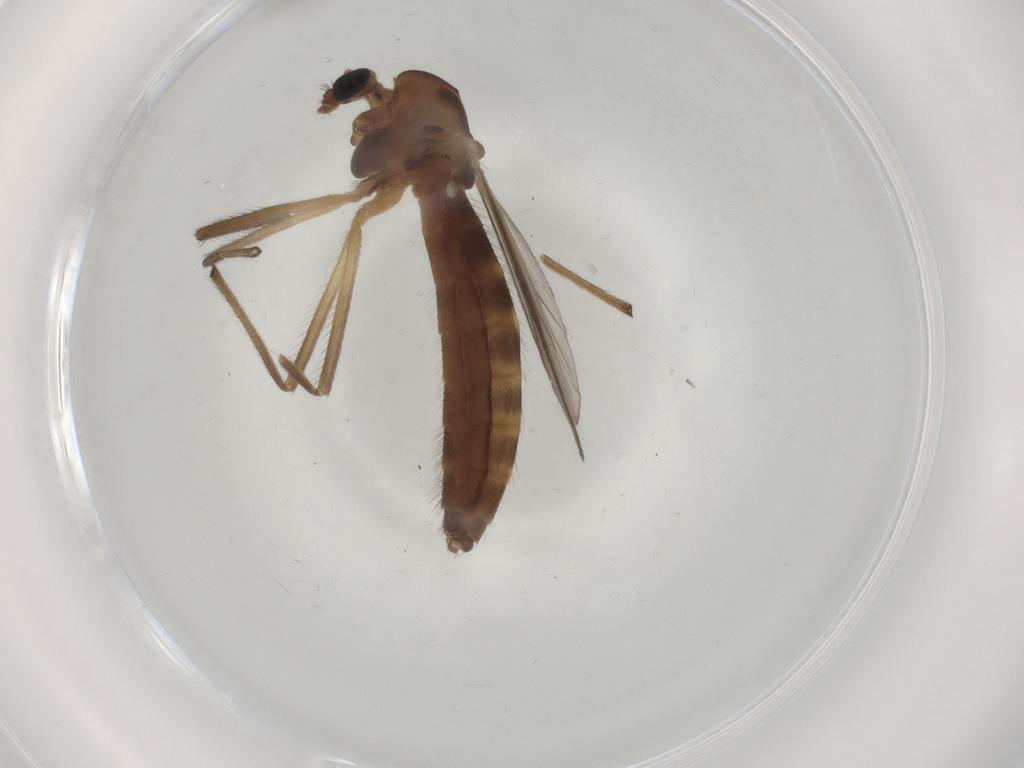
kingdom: Animalia
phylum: Arthropoda
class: Insecta
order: Diptera
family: Chironomidae
